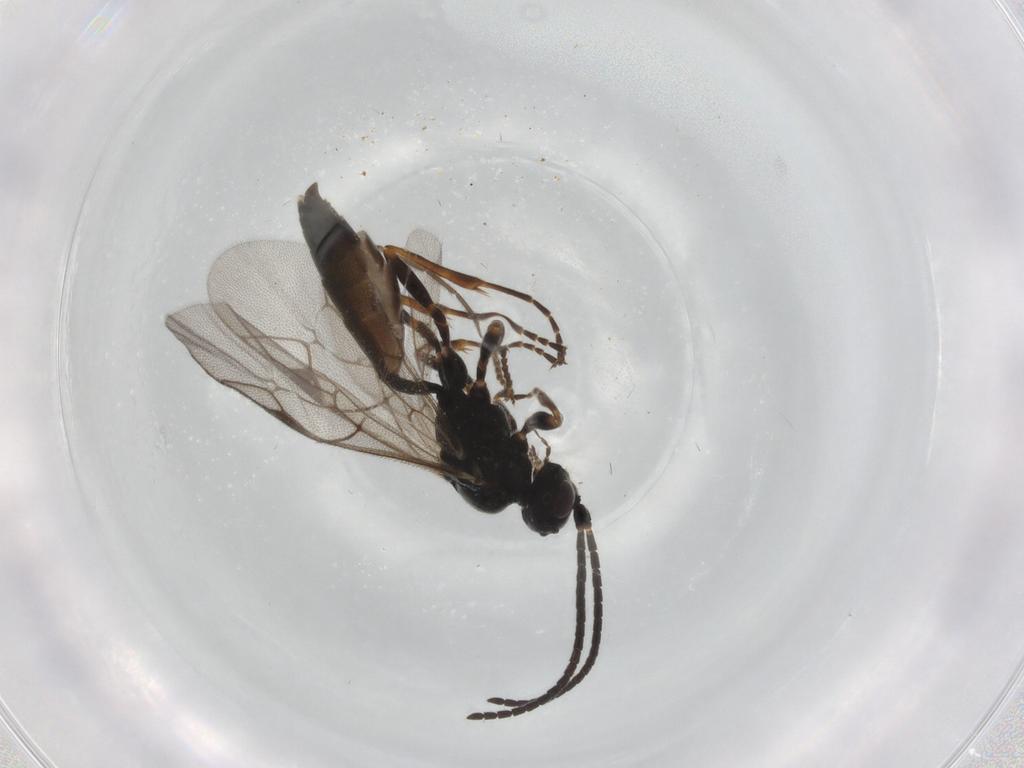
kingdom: Animalia
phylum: Arthropoda
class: Insecta
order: Hymenoptera
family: Ichneumonidae
